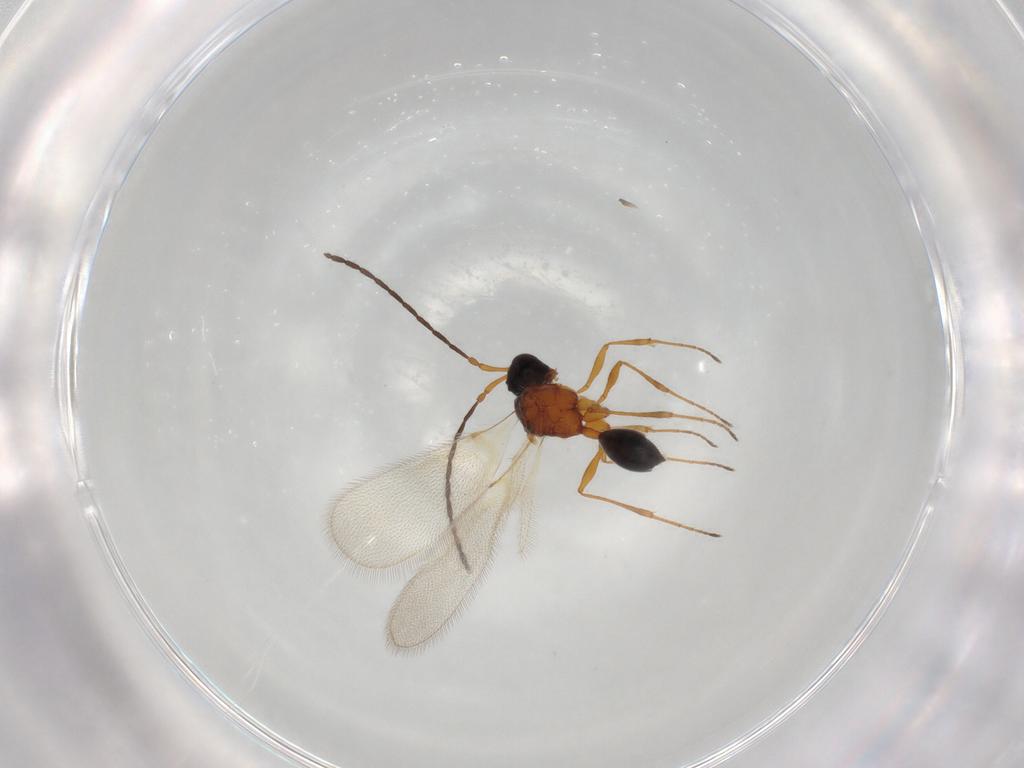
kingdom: Animalia
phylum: Arthropoda
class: Insecta
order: Hymenoptera
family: Diapriidae
